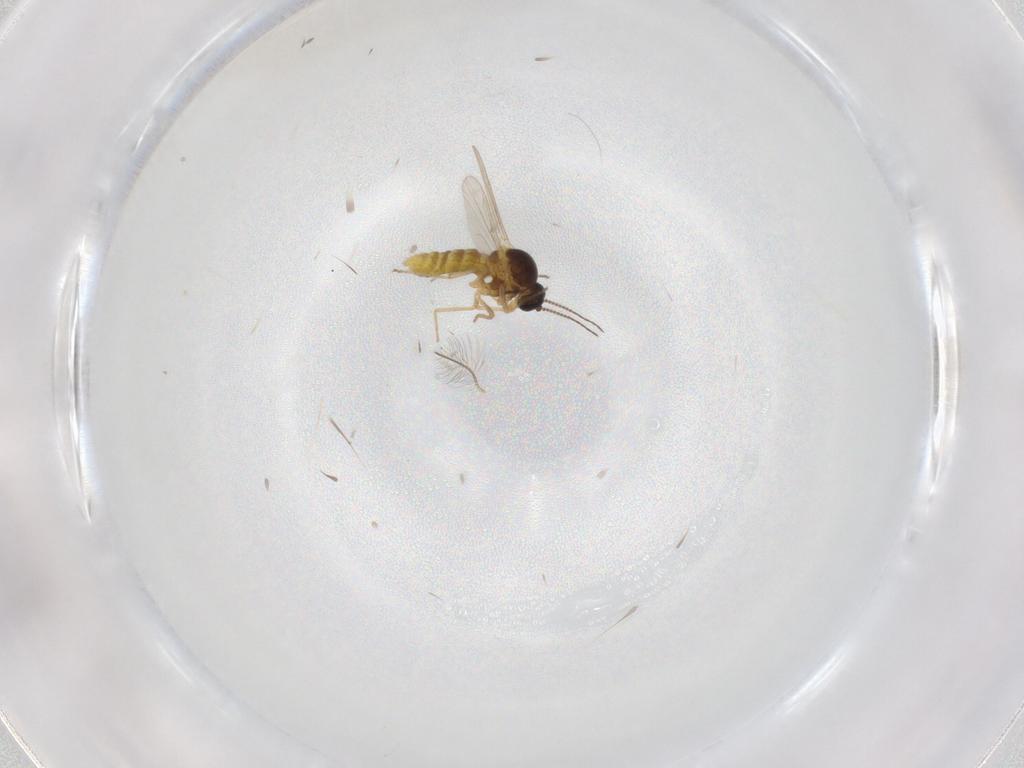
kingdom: Animalia
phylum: Arthropoda
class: Insecta
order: Diptera
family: Ceratopogonidae
